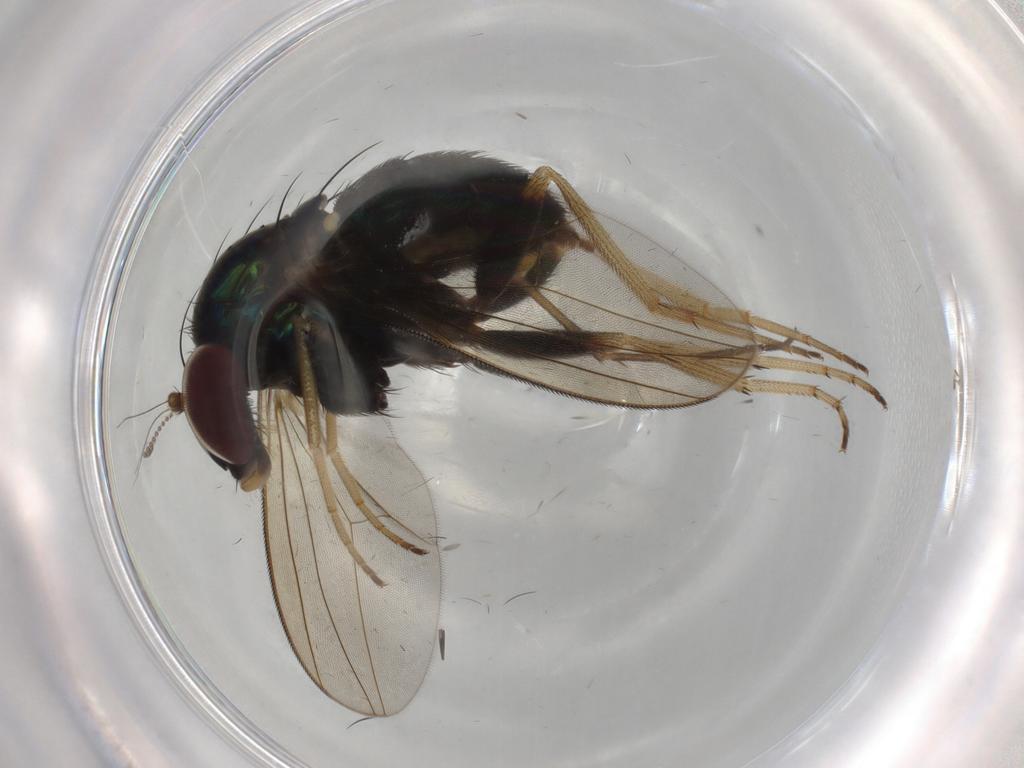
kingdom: Animalia
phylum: Arthropoda
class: Insecta
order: Diptera
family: Dolichopodidae
